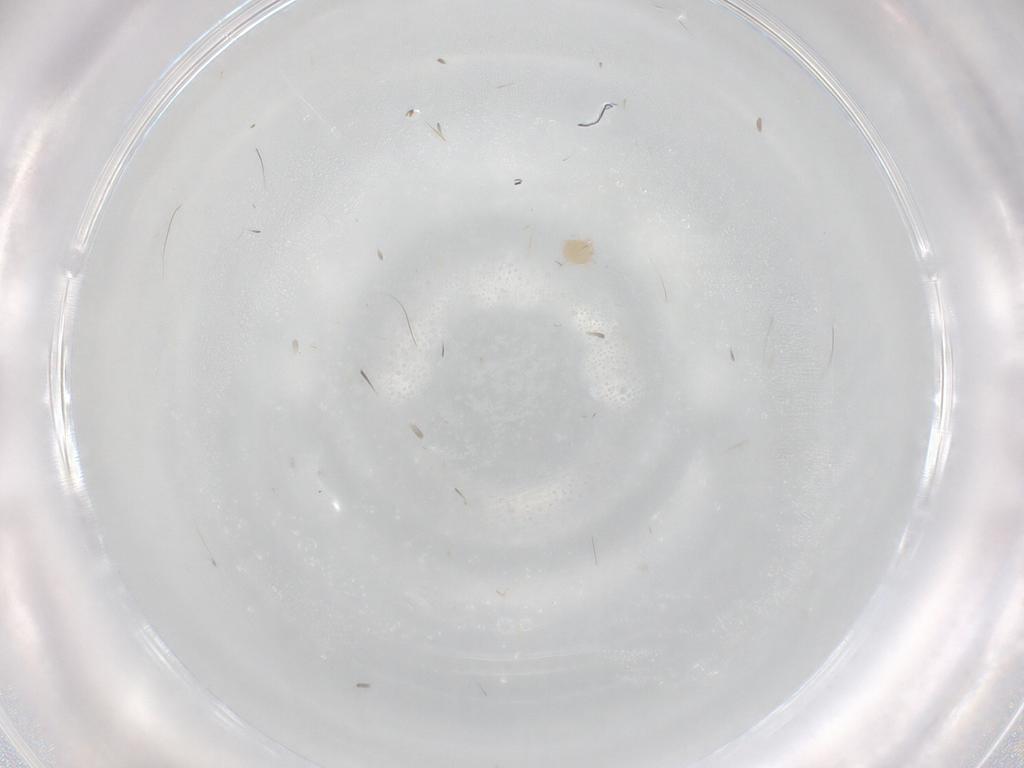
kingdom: Animalia
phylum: Arthropoda
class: Arachnida
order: Trombidiformes
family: Limnesiidae
